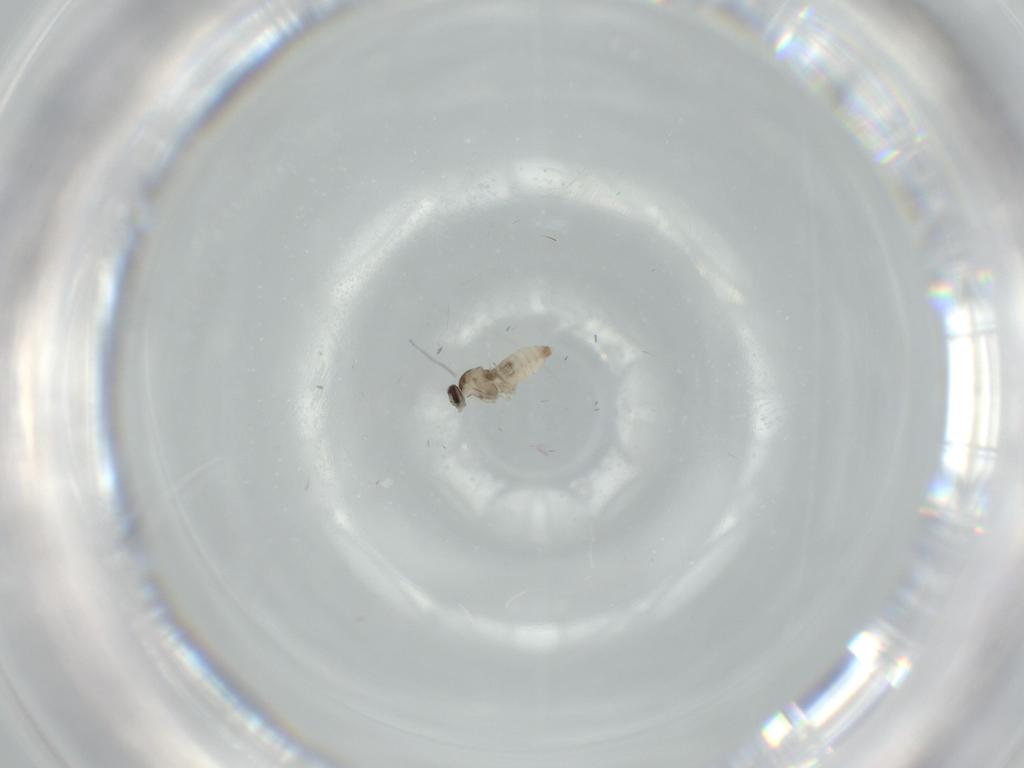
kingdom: Animalia
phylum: Arthropoda
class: Insecta
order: Diptera
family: Cecidomyiidae
